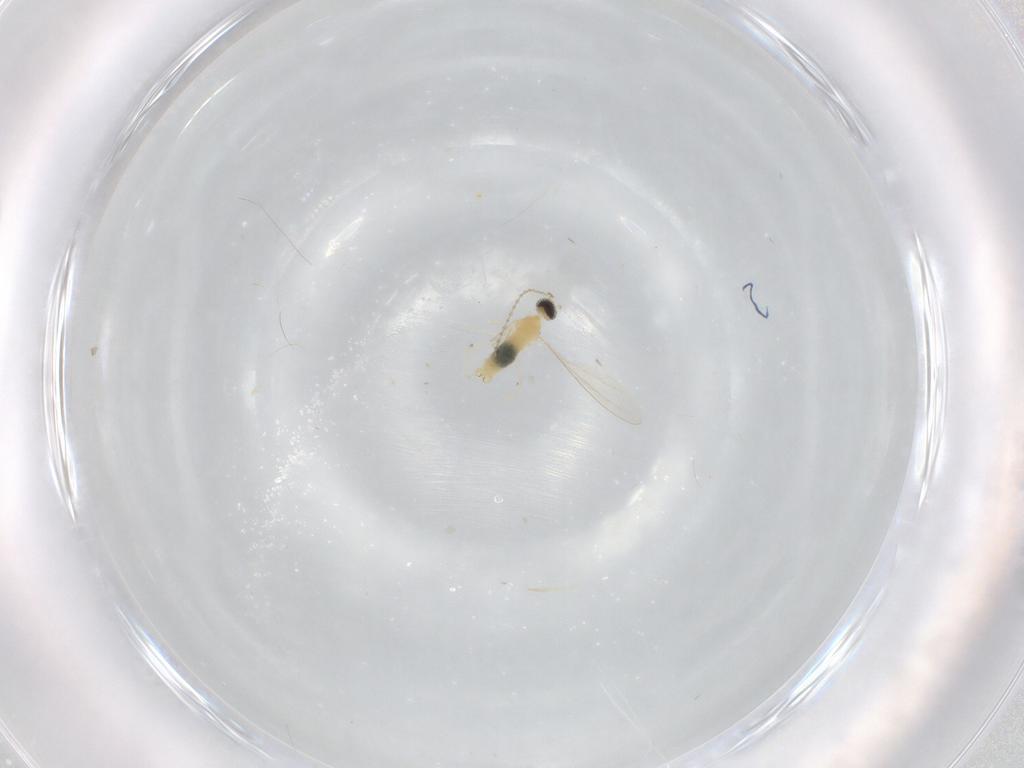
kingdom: Animalia
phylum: Arthropoda
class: Insecta
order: Diptera
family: Cecidomyiidae
